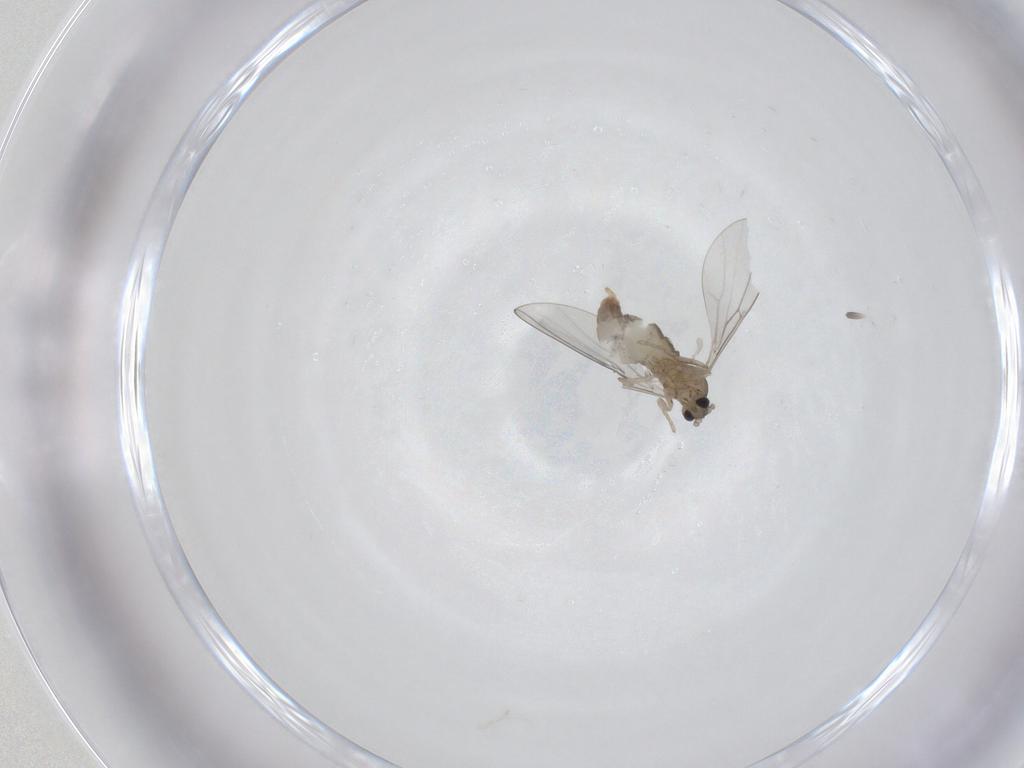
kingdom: Animalia
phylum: Arthropoda
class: Insecta
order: Diptera
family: Cecidomyiidae
